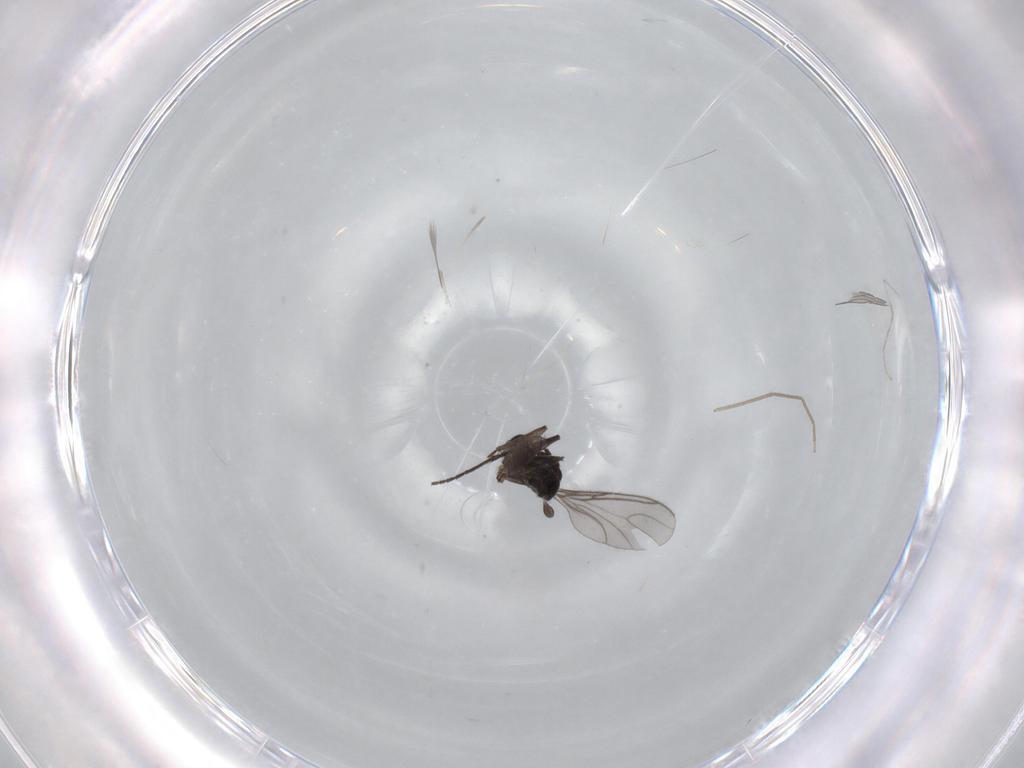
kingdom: Animalia
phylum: Arthropoda
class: Insecta
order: Diptera
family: Sciaridae
